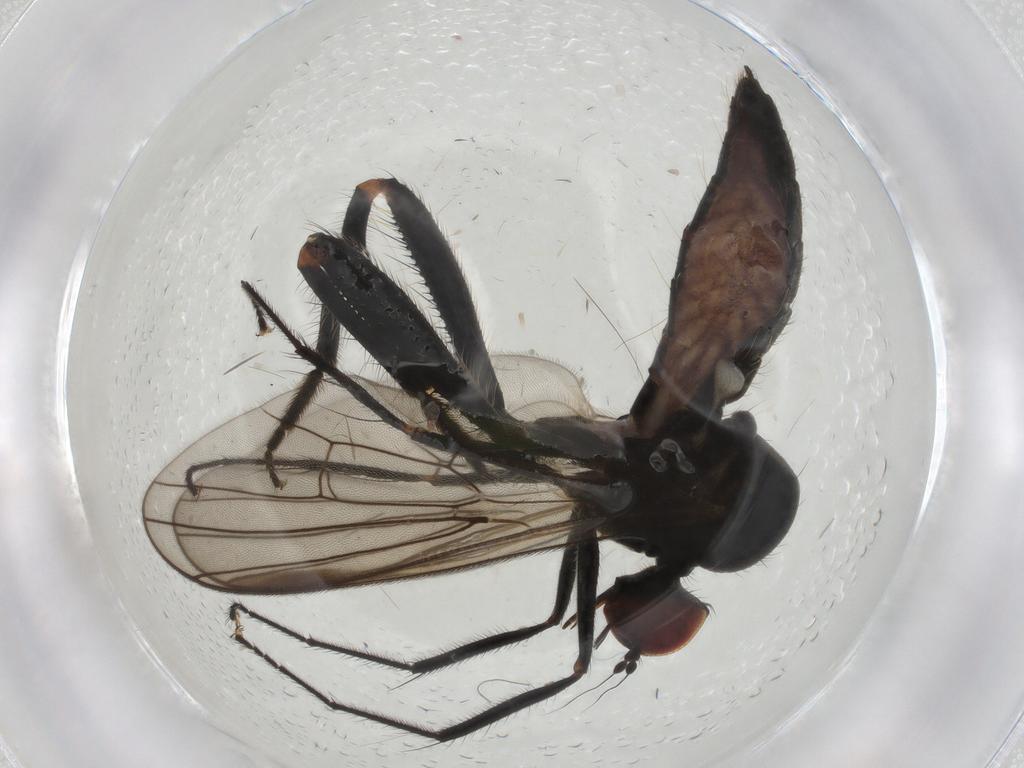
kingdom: Animalia
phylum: Arthropoda
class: Insecta
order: Diptera
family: Hybotidae
